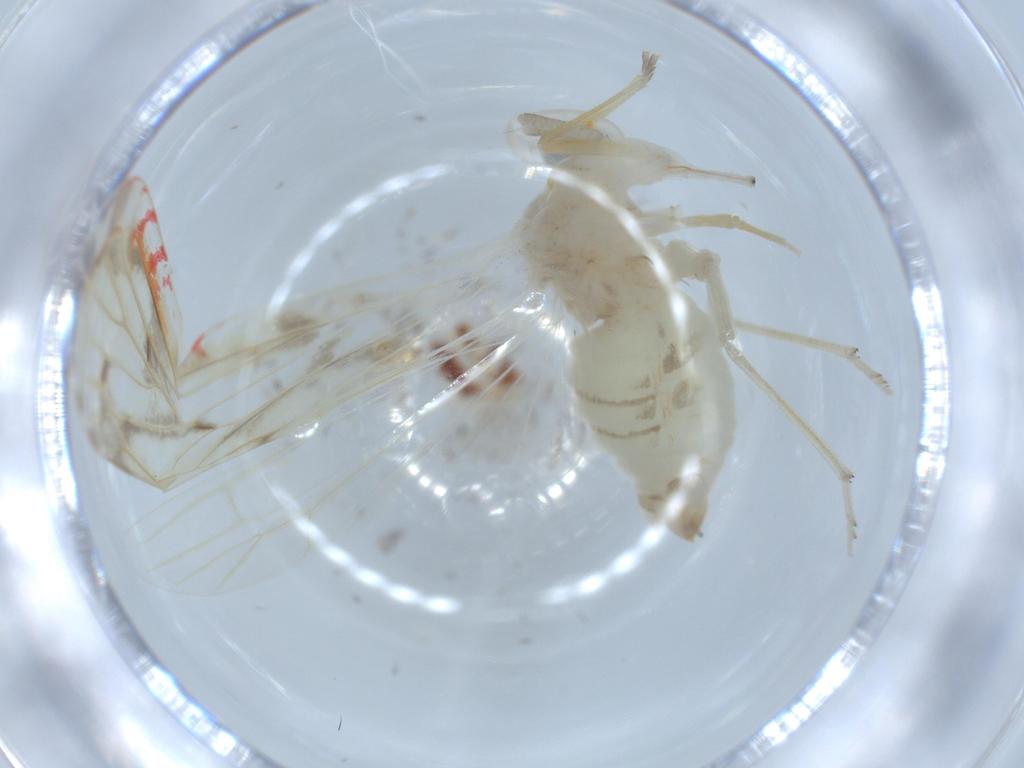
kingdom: Animalia
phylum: Arthropoda
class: Insecta
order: Hemiptera
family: Derbidae
